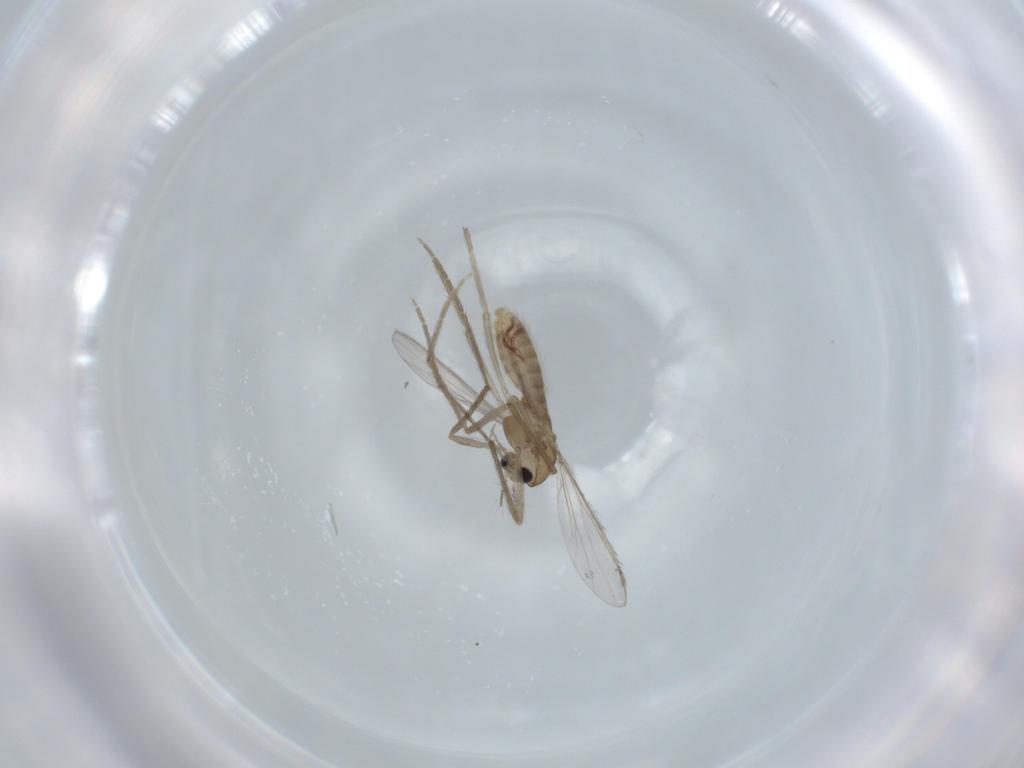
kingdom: Animalia
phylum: Arthropoda
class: Insecta
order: Diptera
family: Chironomidae
